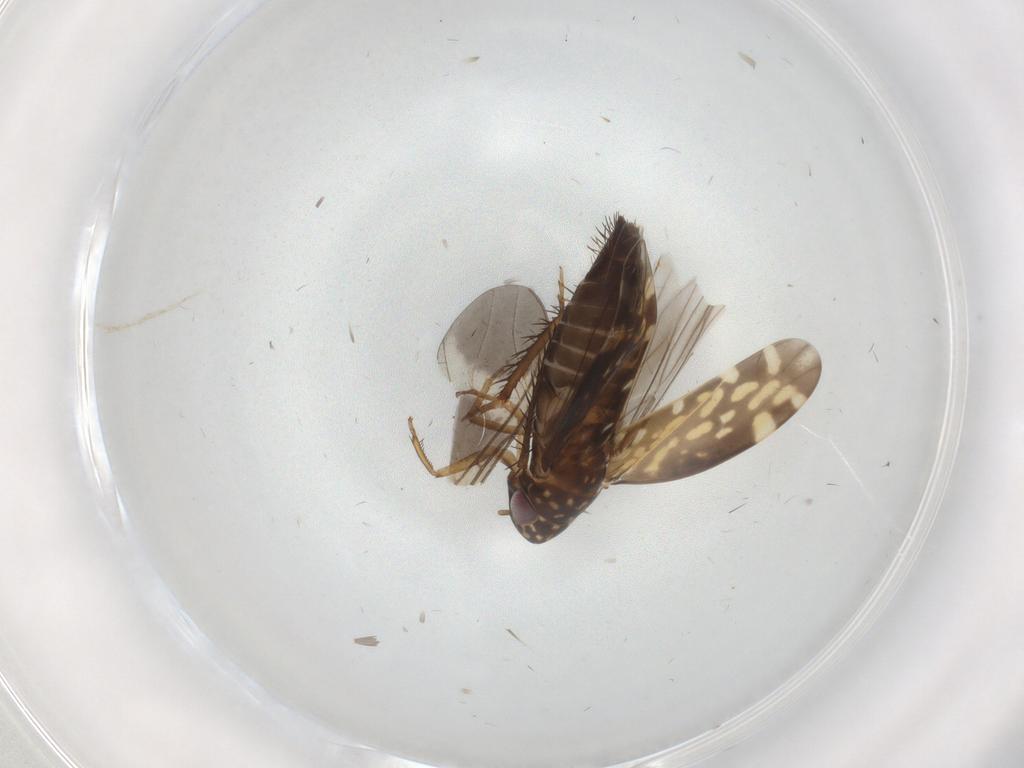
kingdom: Animalia
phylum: Arthropoda
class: Insecta
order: Hemiptera
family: Cicadellidae
